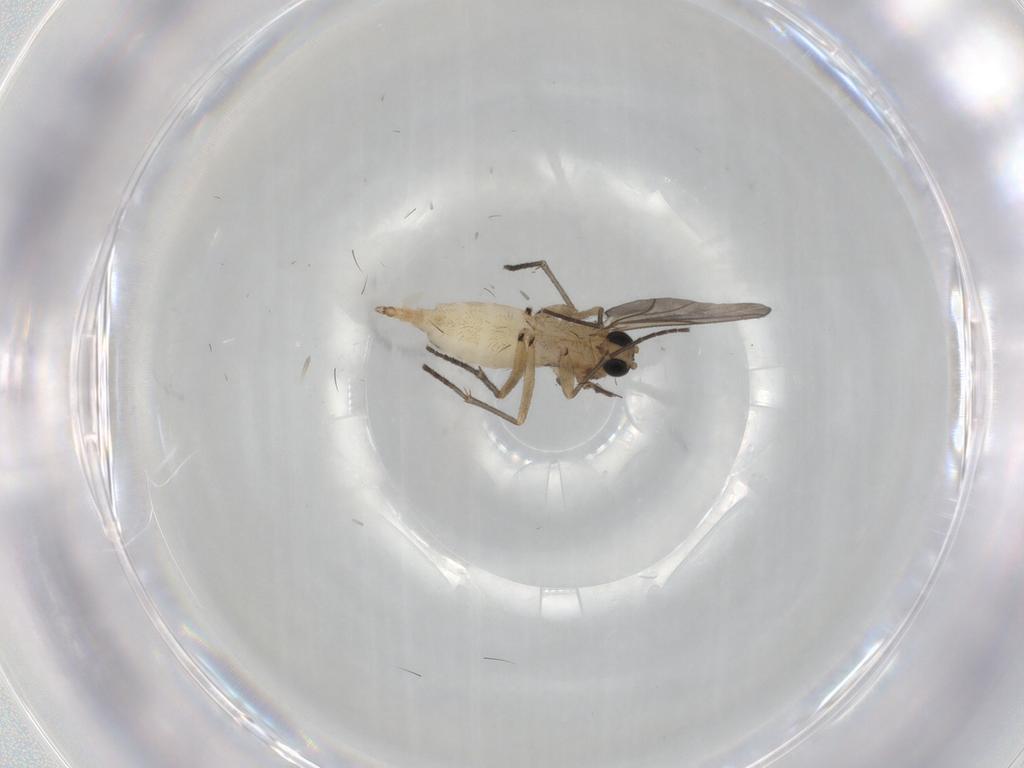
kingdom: Animalia
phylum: Arthropoda
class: Insecta
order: Diptera
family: Sciaridae
